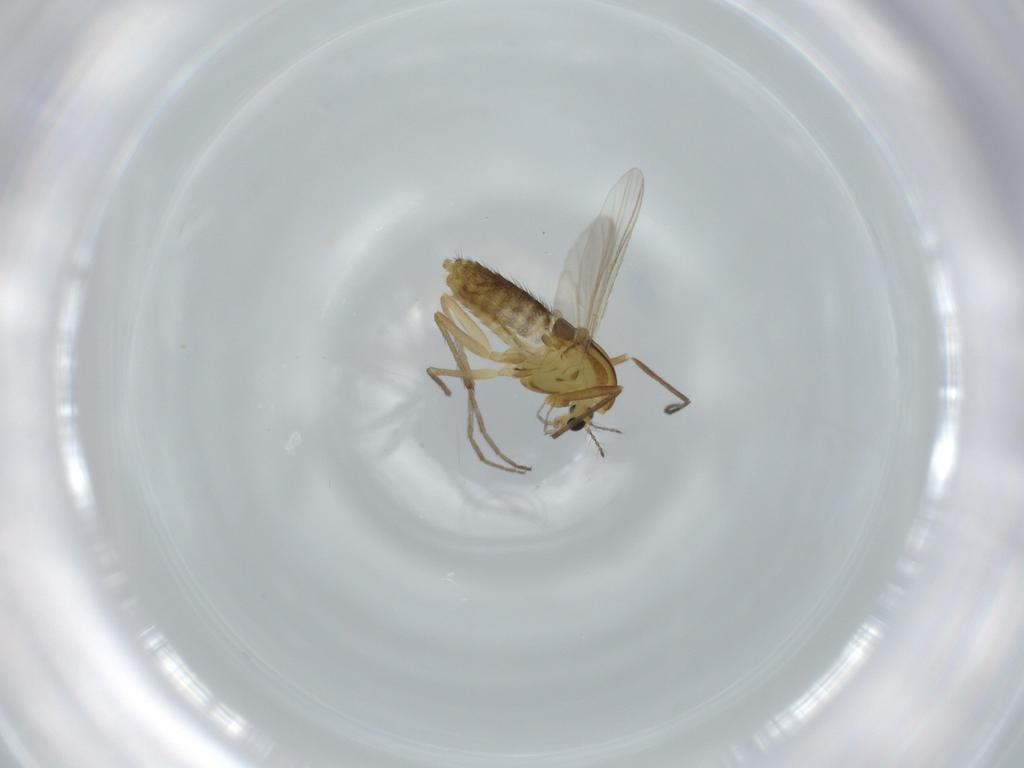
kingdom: Animalia
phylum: Arthropoda
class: Insecta
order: Diptera
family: Chironomidae
